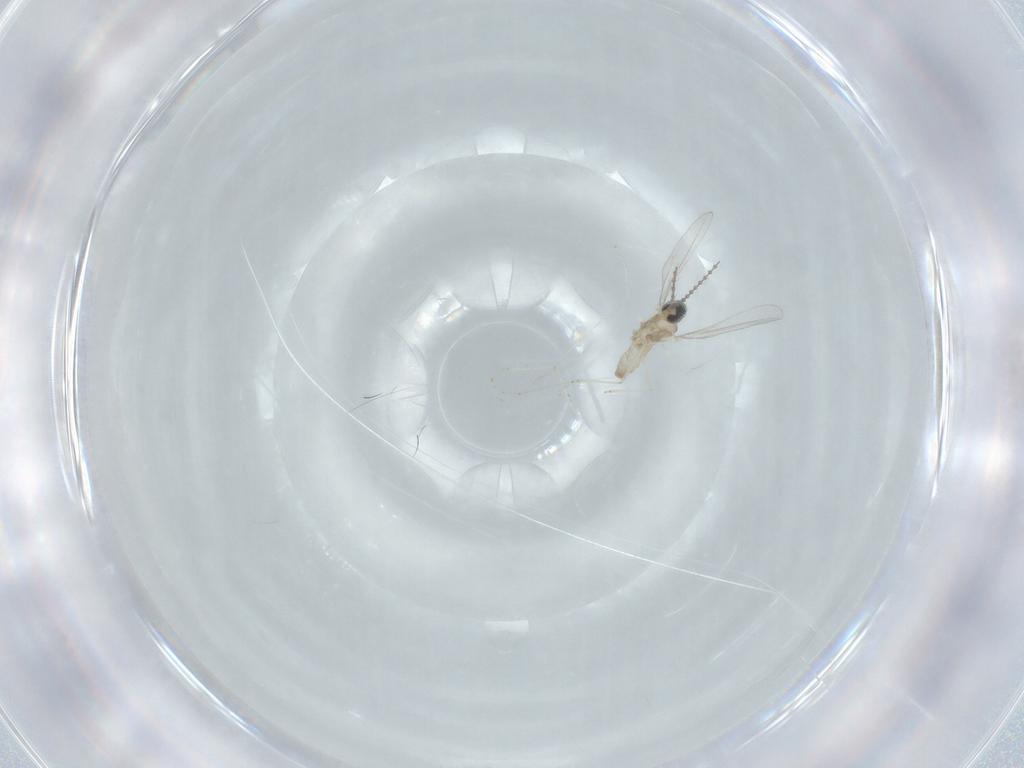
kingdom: Animalia
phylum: Arthropoda
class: Insecta
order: Diptera
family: Cecidomyiidae
